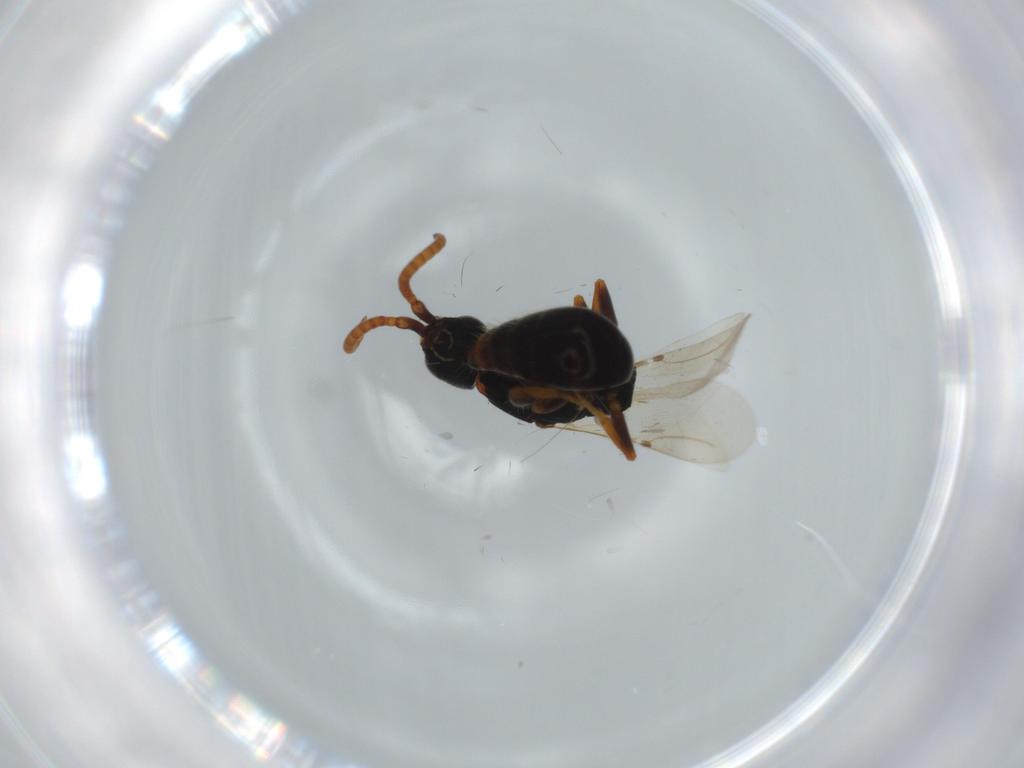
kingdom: Animalia
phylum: Arthropoda
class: Insecta
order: Hymenoptera
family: Bethylidae
